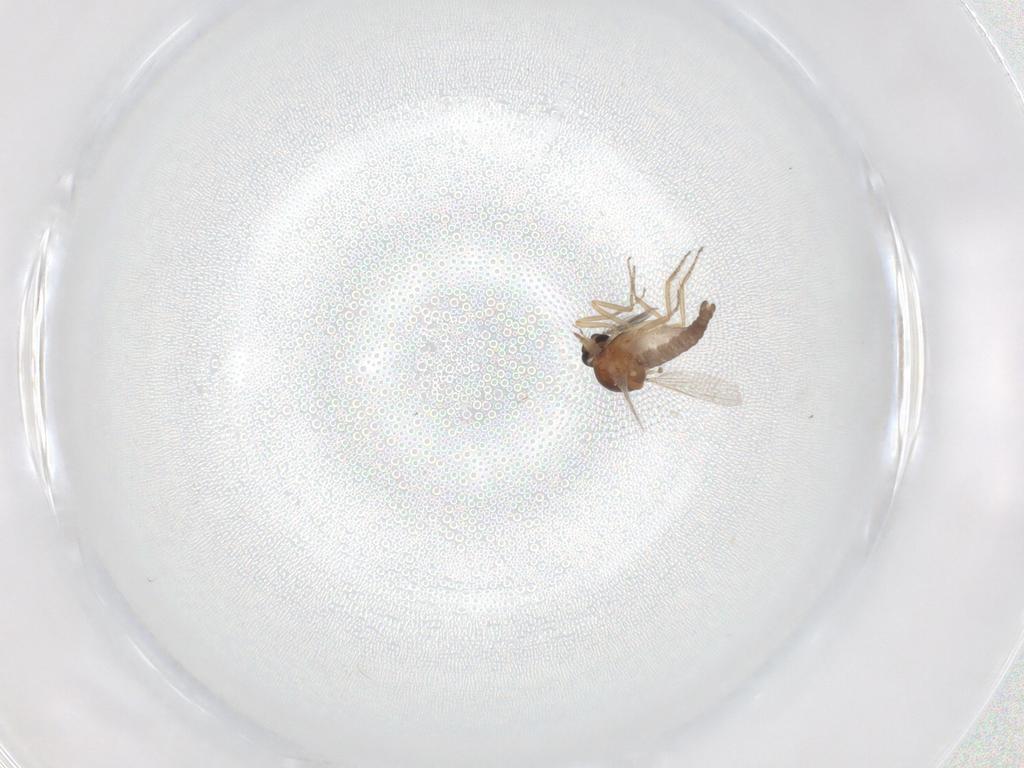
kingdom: Animalia
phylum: Arthropoda
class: Insecta
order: Diptera
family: Ceratopogonidae
